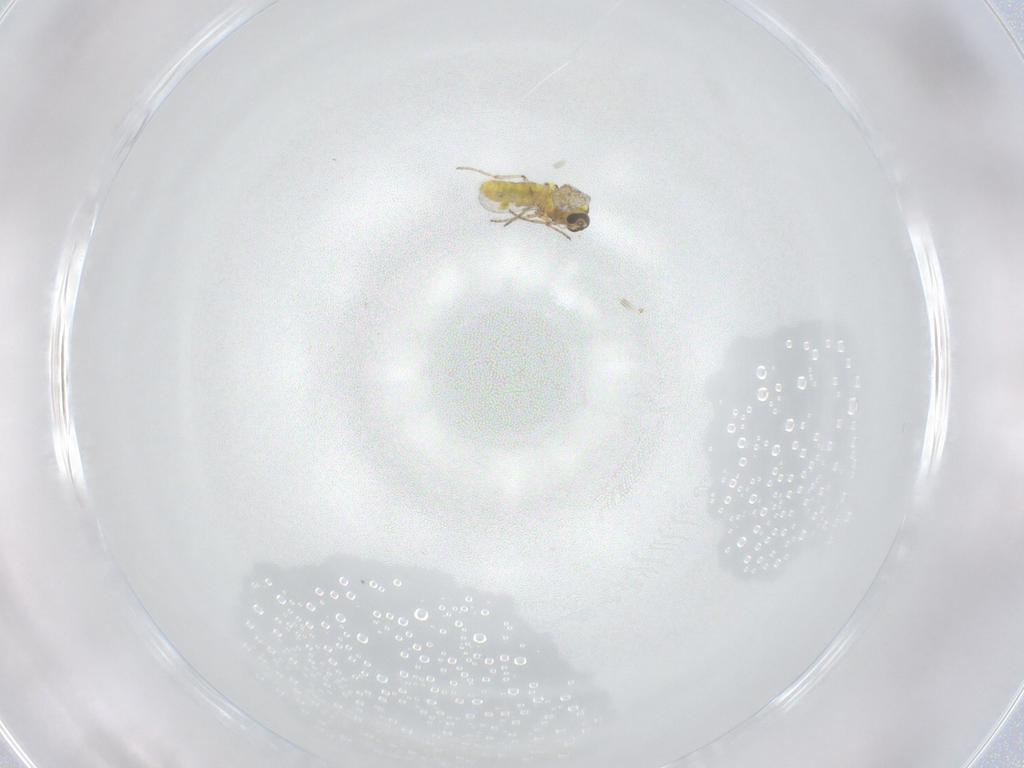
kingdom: Animalia
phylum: Arthropoda
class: Insecta
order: Diptera
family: Ceratopogonidae
